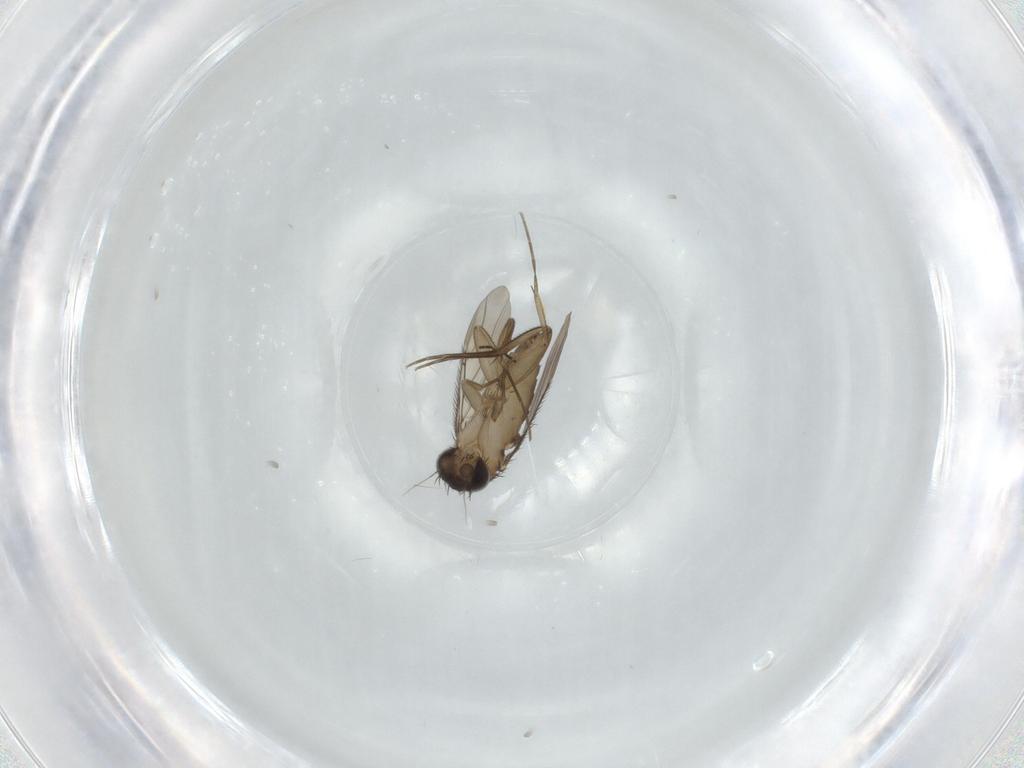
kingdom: Animalia
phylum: Arthropoda
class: Insecta
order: Diptera
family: Phoridae
